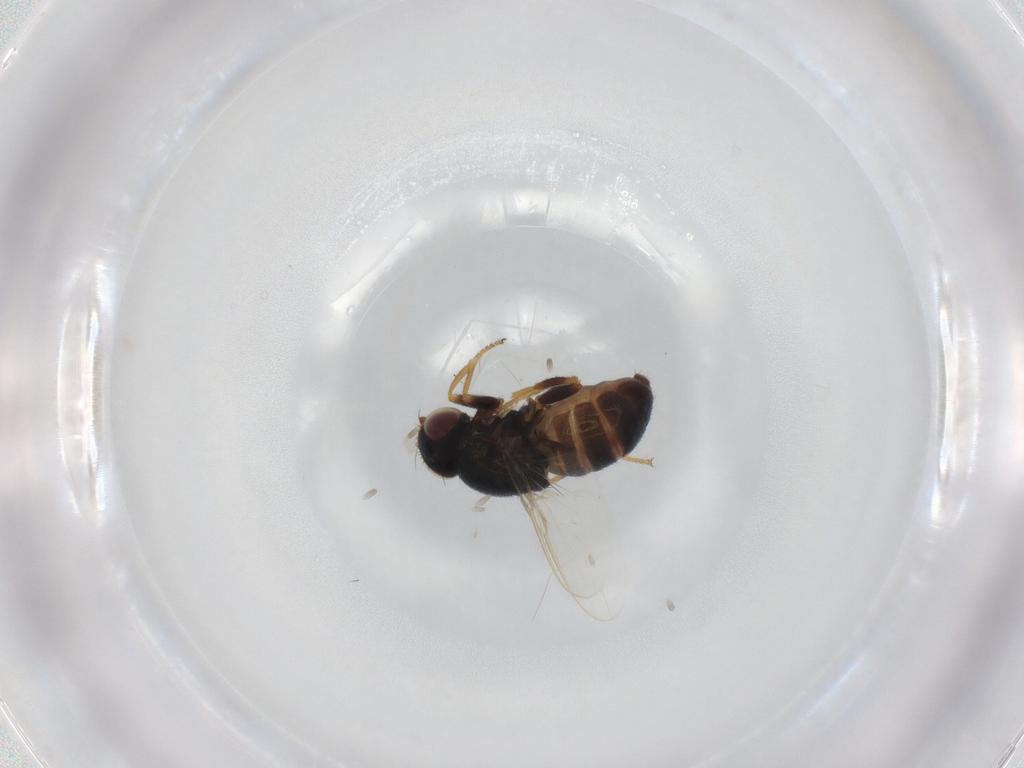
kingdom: Animalia
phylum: Arthropoda
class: Insecta
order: Diptera
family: Chloropidae
